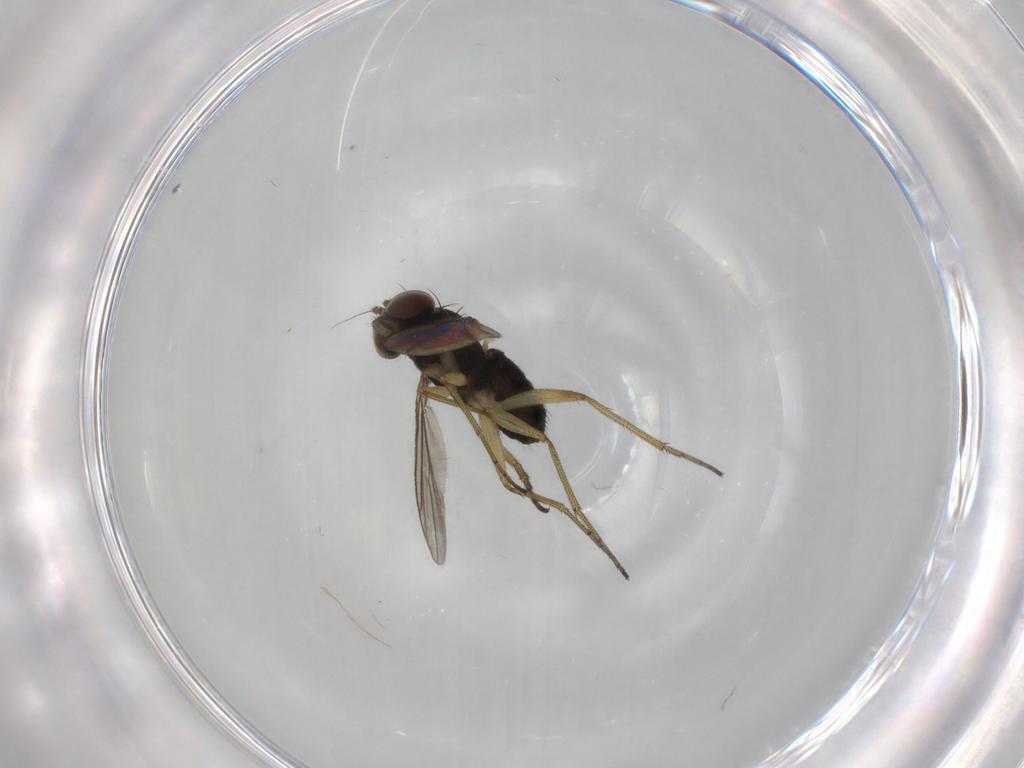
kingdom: Animalia
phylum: Arthropoda
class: Insecta
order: Diptera
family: Dolichopodidae
